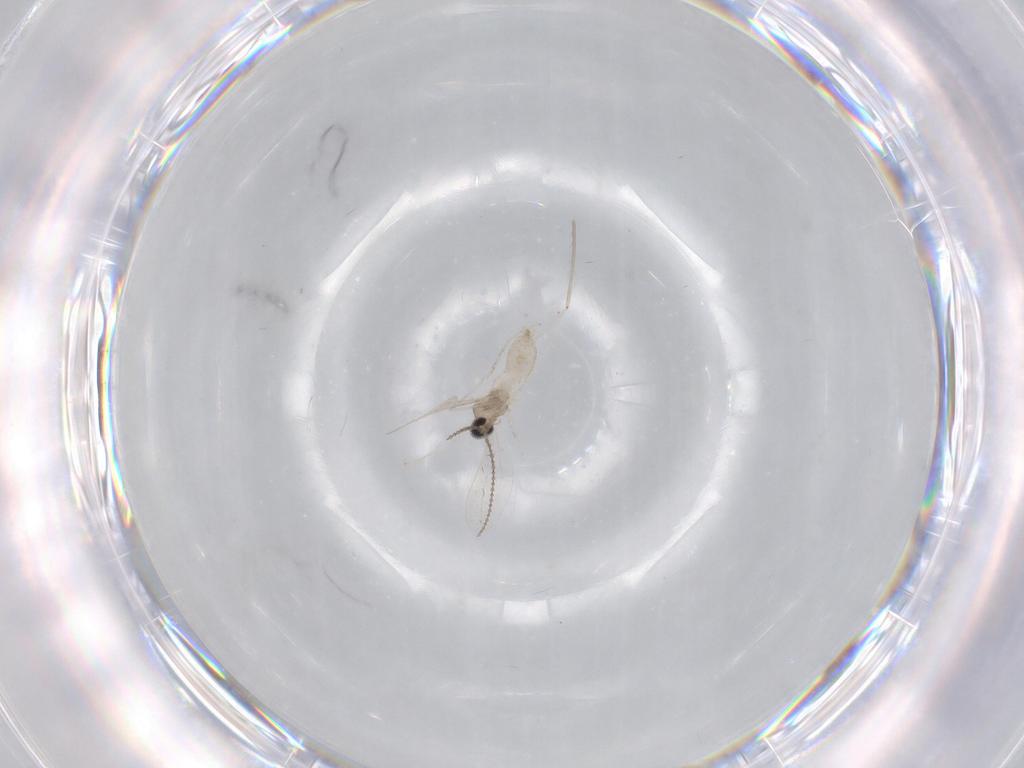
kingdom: Animalia
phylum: Arthropoda
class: Insecta
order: Diptera
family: Cecidomyiidae
